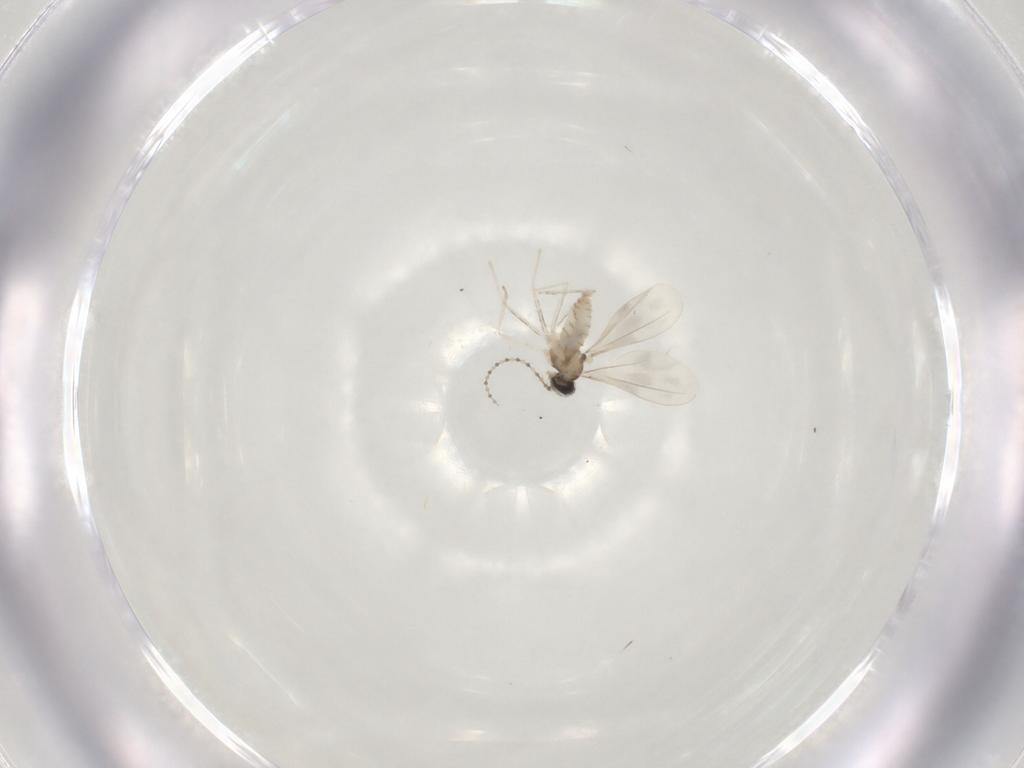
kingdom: Animalia
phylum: Arthropoda
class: Insecta
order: Diptera
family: Cecidomyiidae
